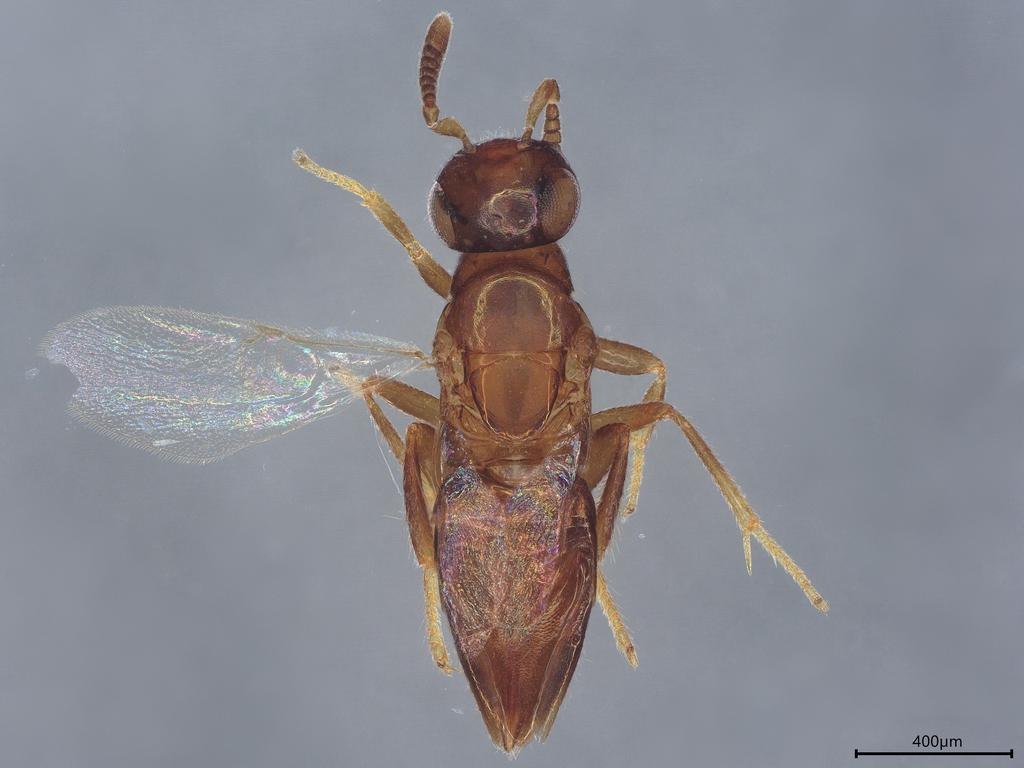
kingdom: Animalia
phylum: Arthropoda
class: Insecta
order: Hymenoptera
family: Encyrtidae
